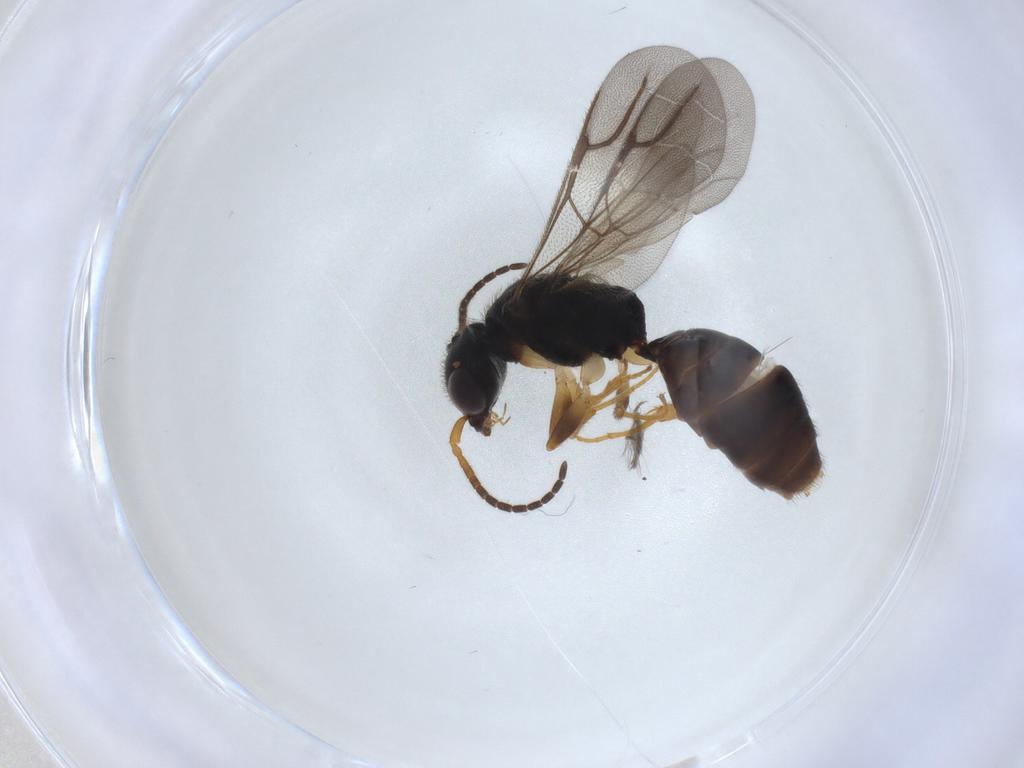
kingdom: Animalia
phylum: Arthropoda
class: Insecta
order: Hymenoptera
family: Bethylidae
